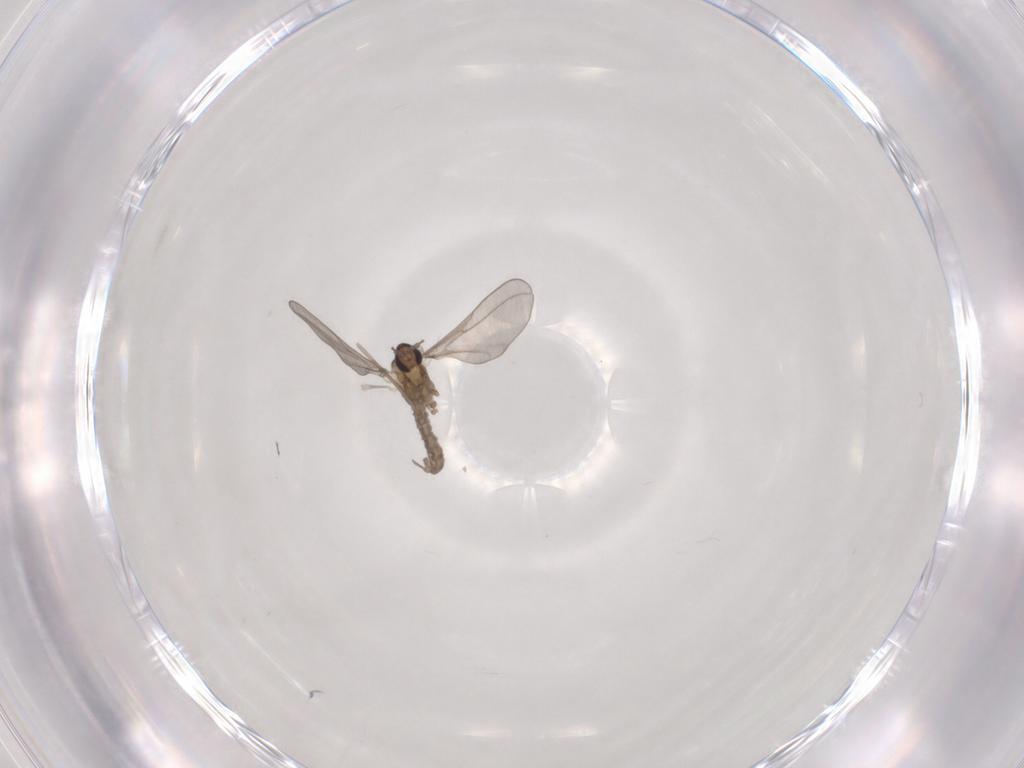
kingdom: Animalia
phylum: Arthropoda
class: Insecta
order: Diptera
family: Cecidomyiidae
